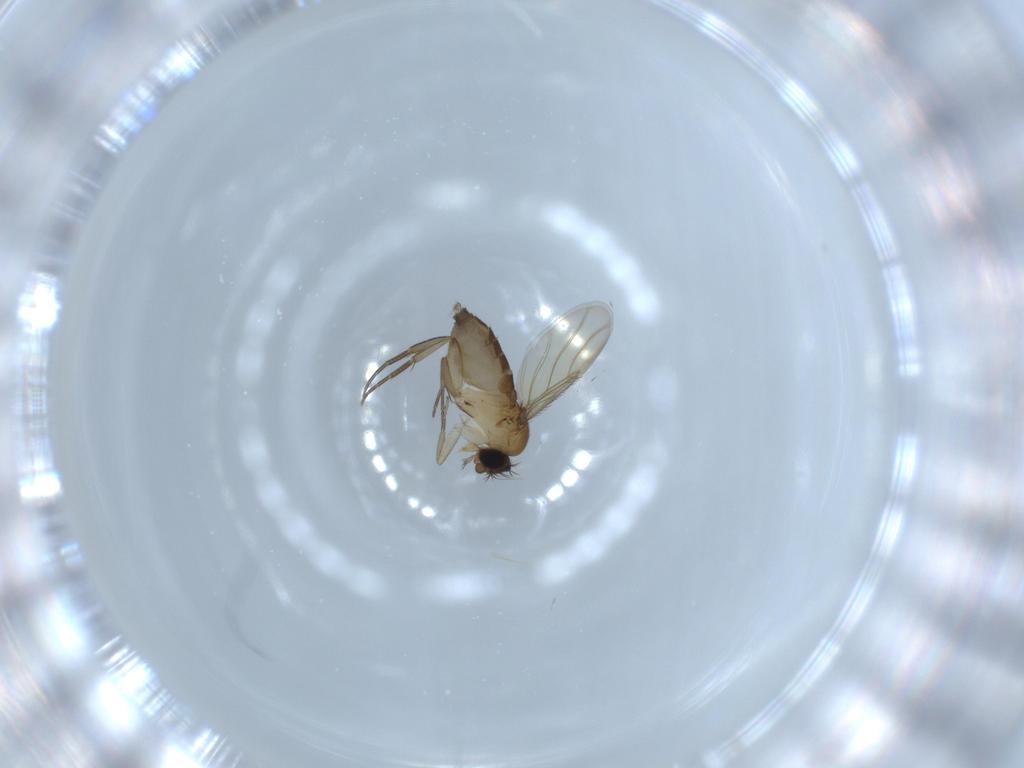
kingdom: Animalia
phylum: Arthropoda
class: Insecta
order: Diptera
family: Phoridae
